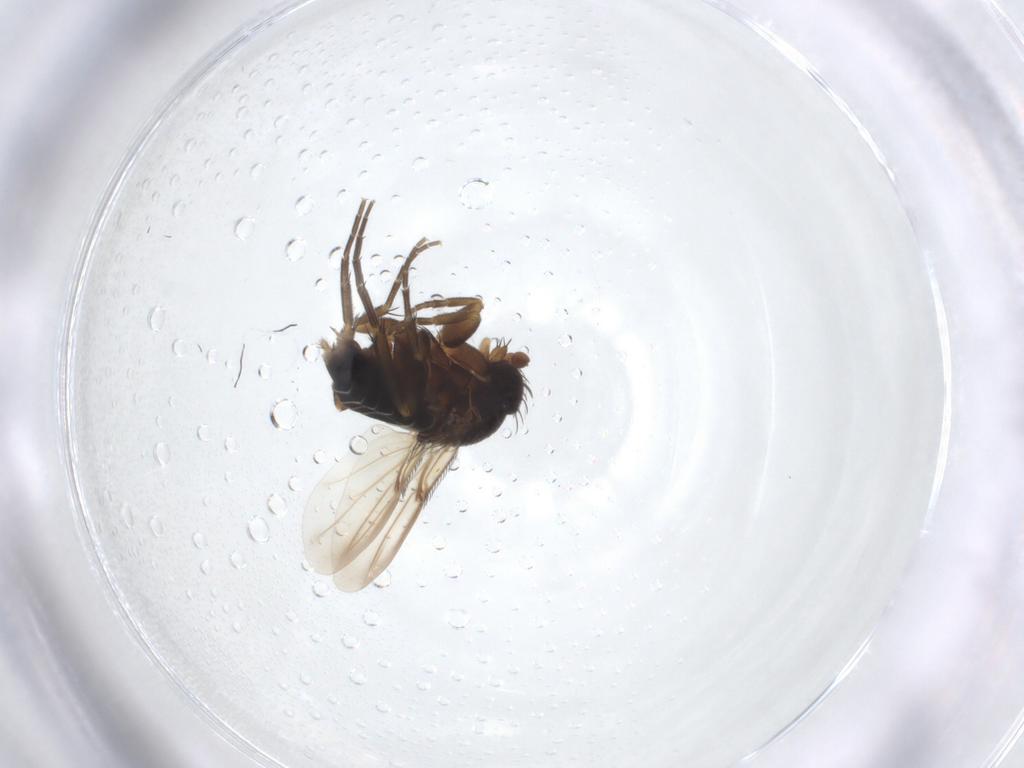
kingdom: Animalia
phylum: Arthropoda
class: Insecta
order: Diptera
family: Phoridae
